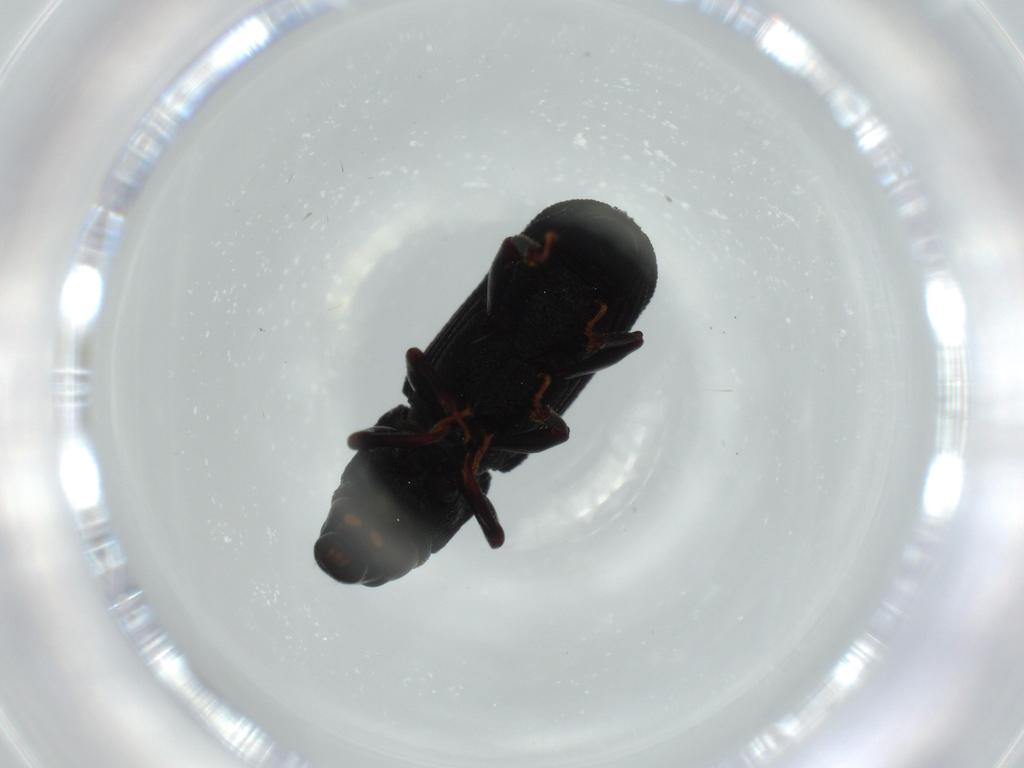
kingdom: Animalia
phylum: Arthropoda
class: Insecta
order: Coleoptera
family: Curculionidae
